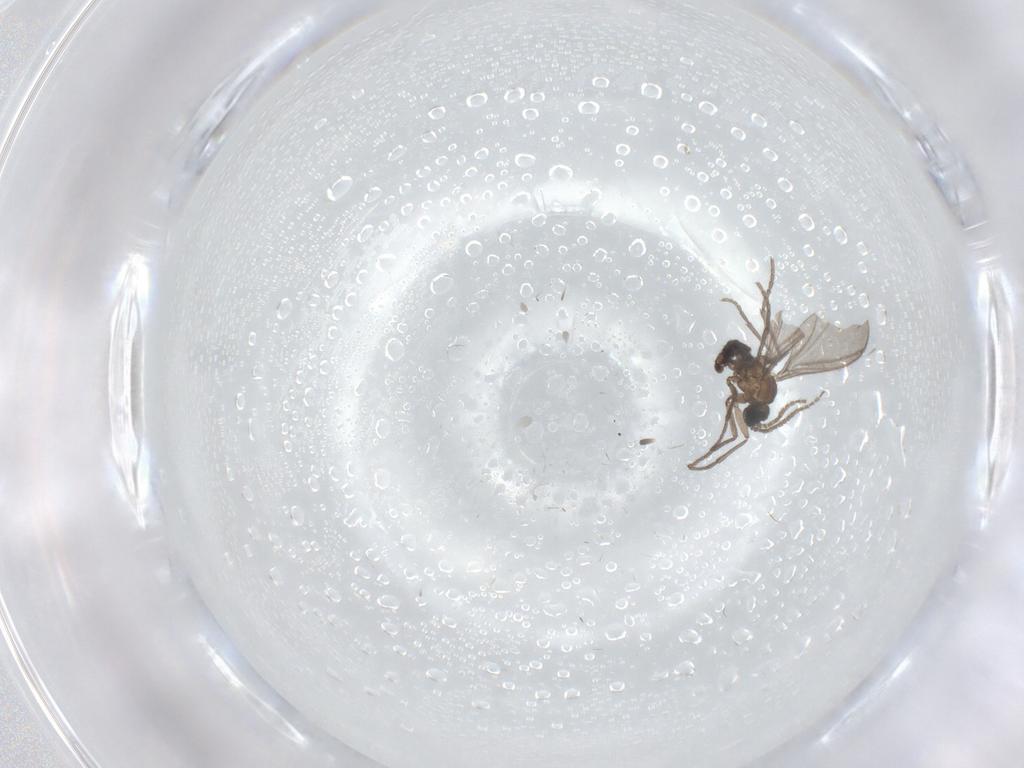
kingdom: Animalia
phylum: Arthropoda
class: Insecta
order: Diptera
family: Sciaridae
